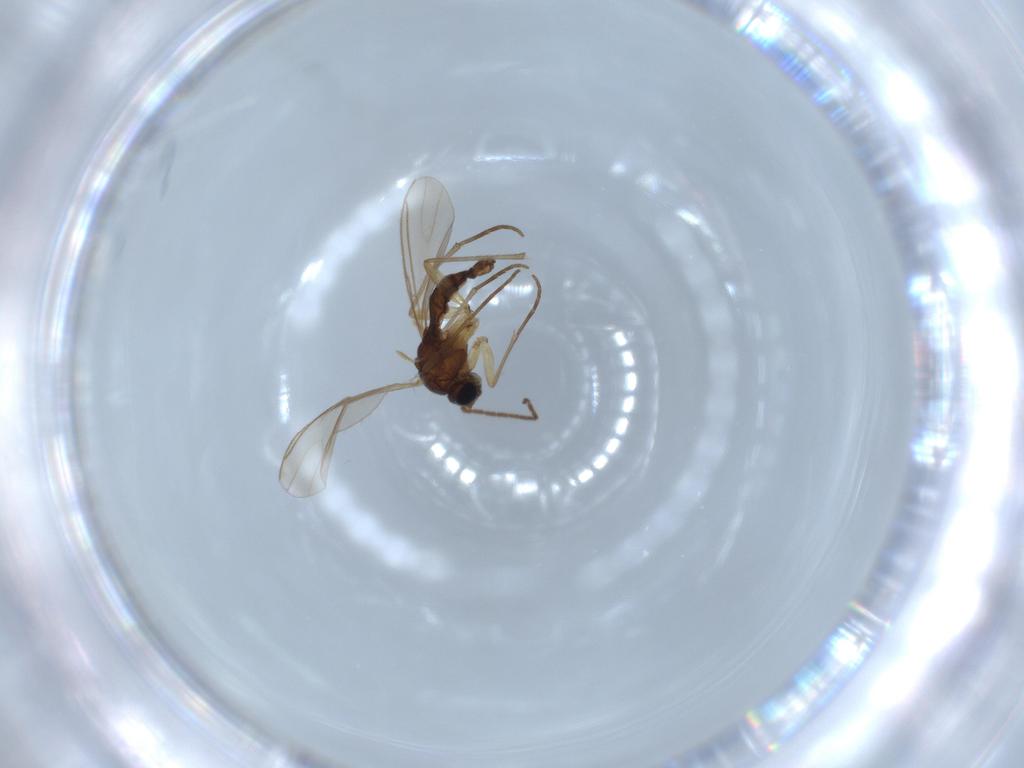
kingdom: Animalia
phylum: Arthropoda
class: Insecta
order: Diptera
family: Sciaridae
